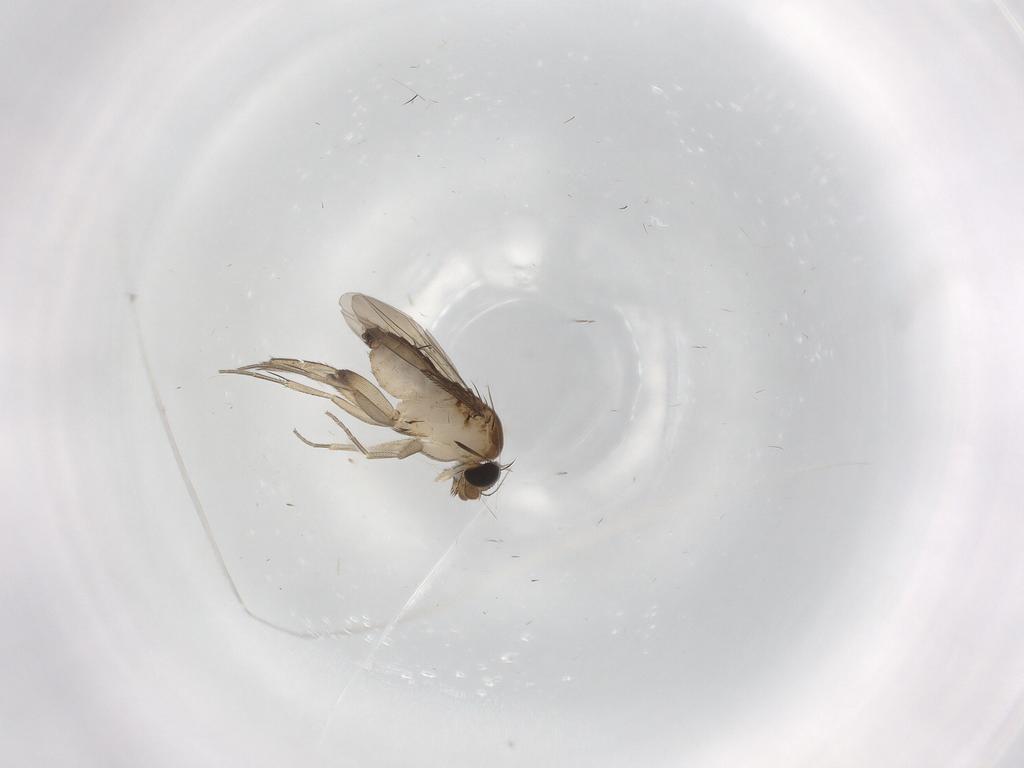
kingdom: Animalia
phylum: Arthropoda
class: Insecta
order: Diptera
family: Phoridae
